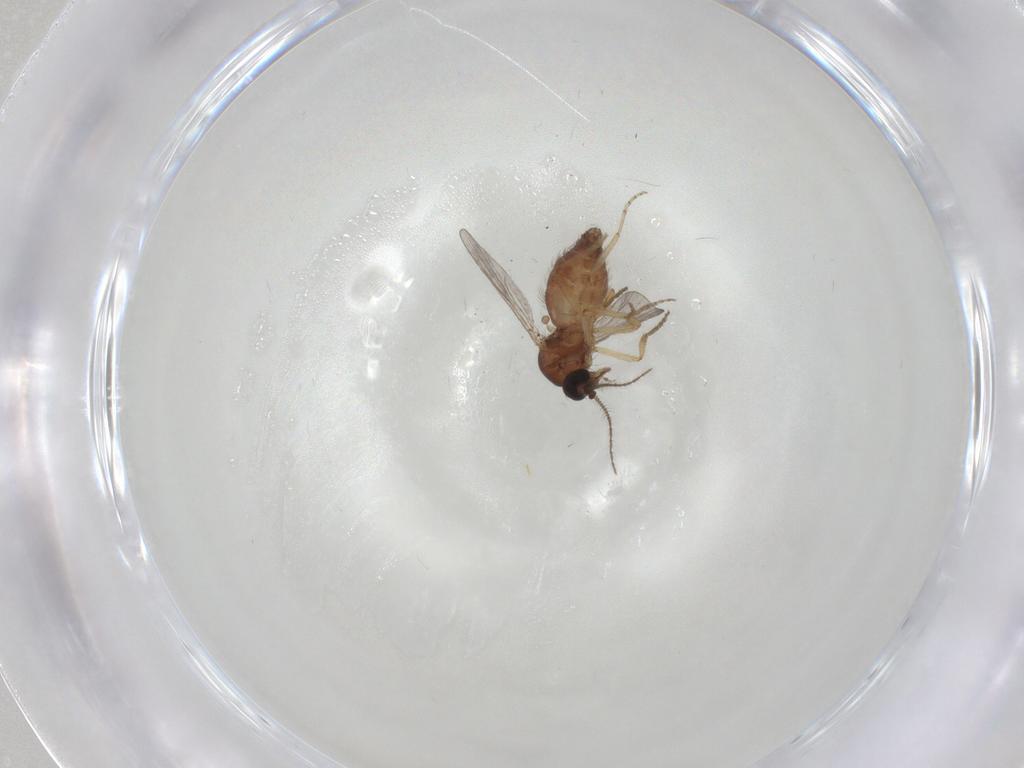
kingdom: Animalia
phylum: Arthropoda
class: Insecta
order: Diptera
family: Ceratopogonidae
